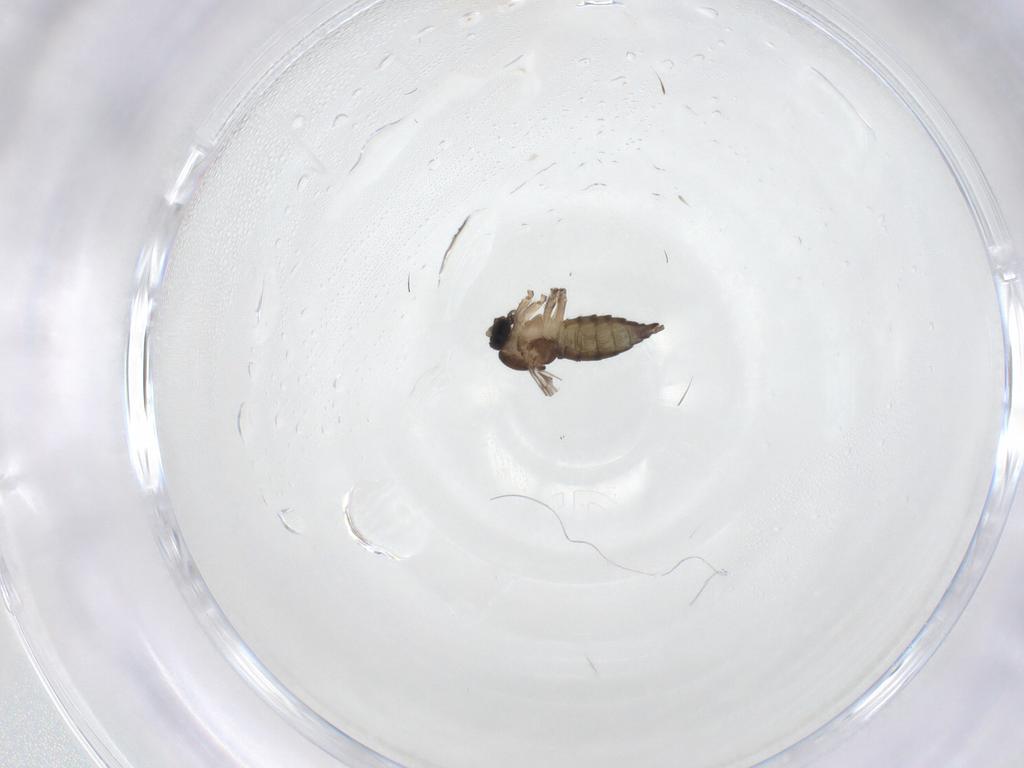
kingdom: Animalia
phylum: Arthropoda
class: Insecta
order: Diptera
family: Sciaridae
